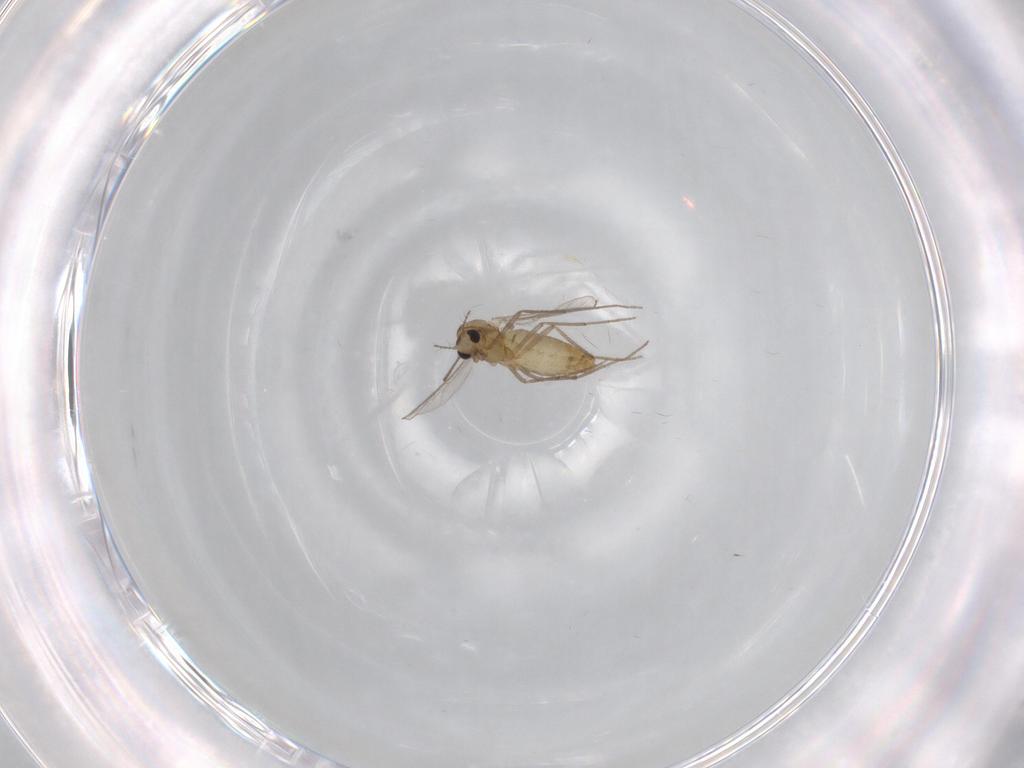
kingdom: Animalia
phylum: Arthropoda
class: Insecta
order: Diptera
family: Chironomidae
